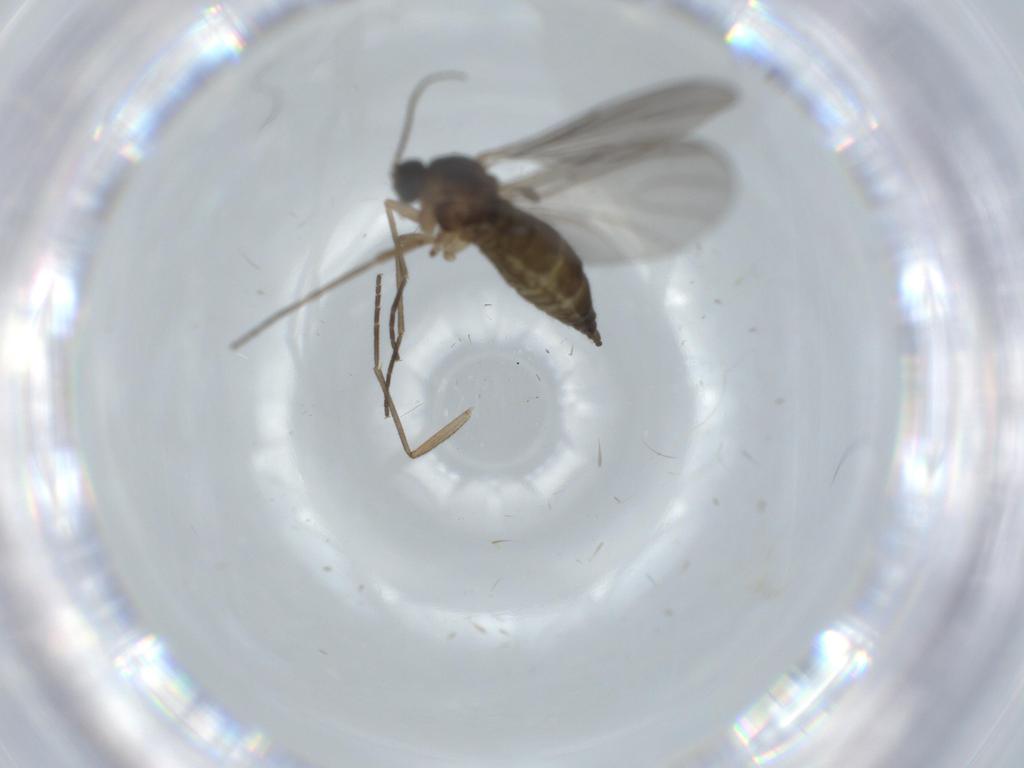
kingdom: Animalia
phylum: Arthropoda
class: Insecta
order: Diptera
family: Sciaridae
